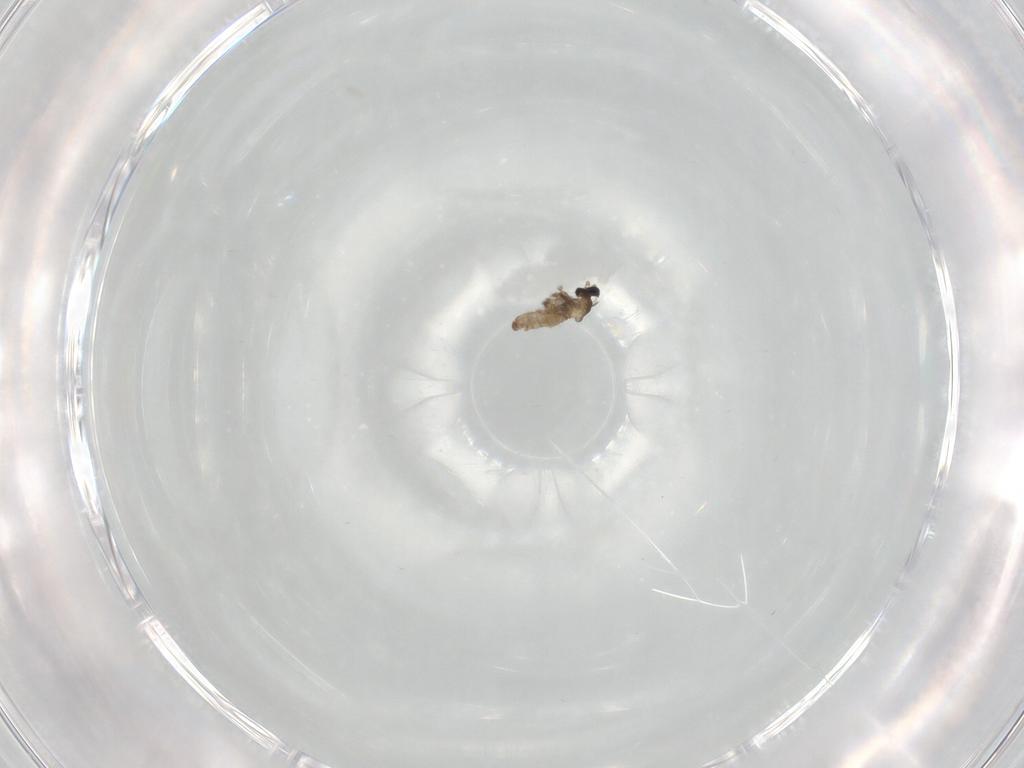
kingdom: Animalia
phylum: Arthropoda
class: Insecta
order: Diptera
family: Cecidomyiidae
